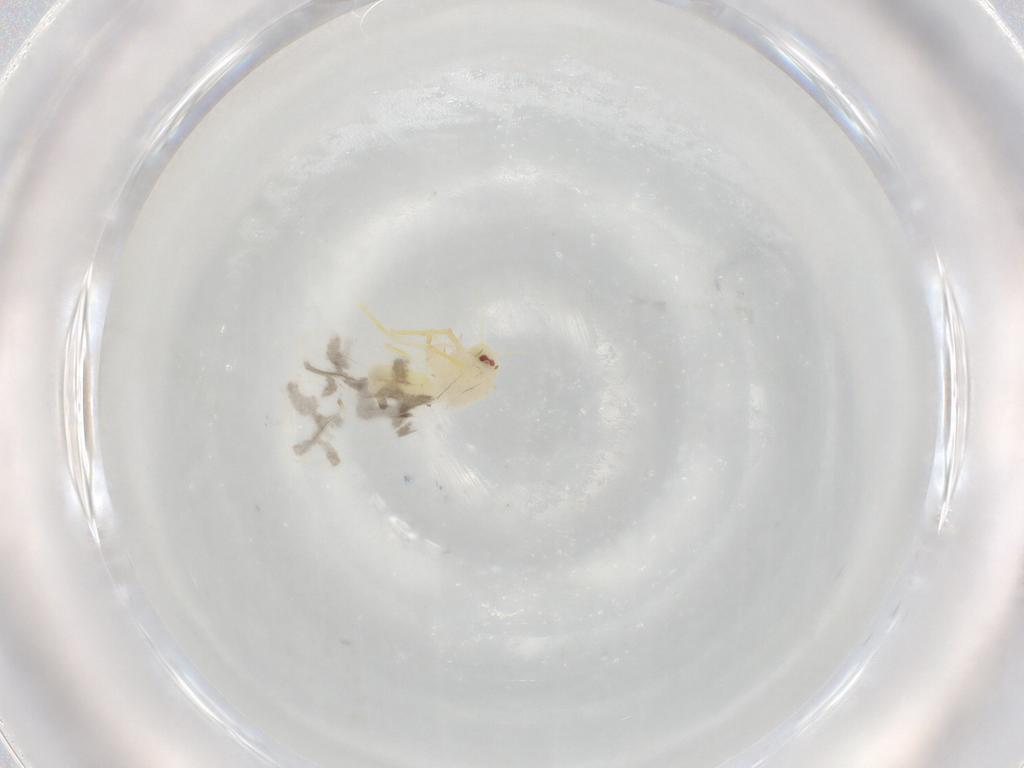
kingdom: Animalia
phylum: Arthropoda
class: Insecta
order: Hemiptera
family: Aleyrodidae
